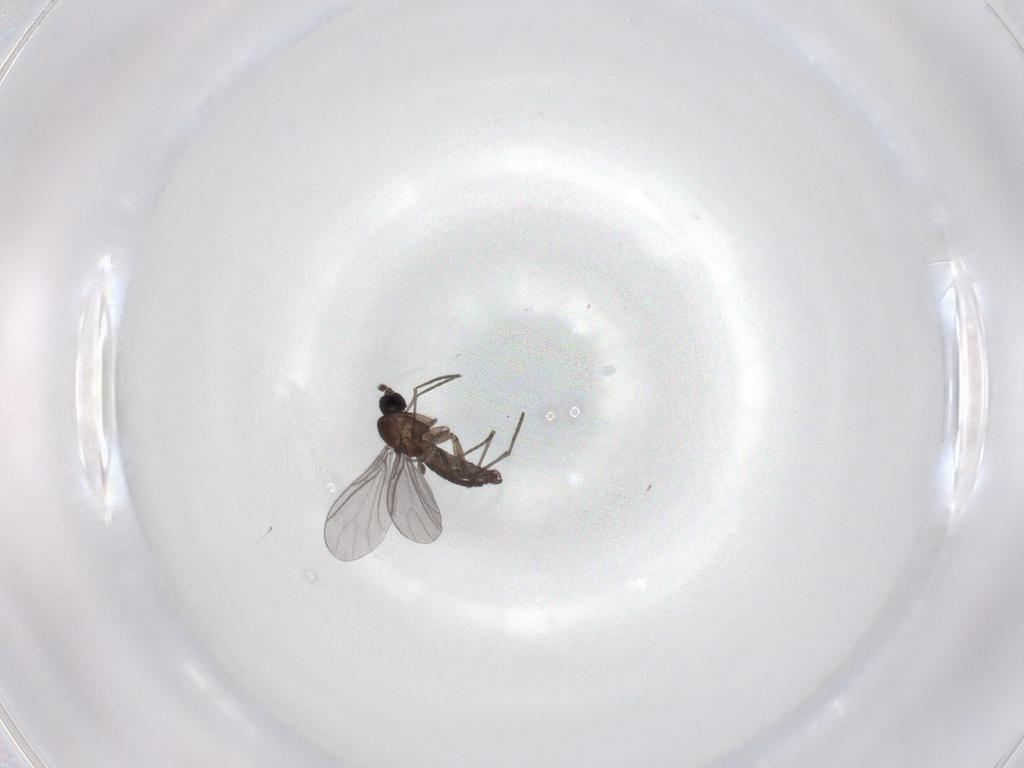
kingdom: Animalia
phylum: Arthropoda
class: Insecta
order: Diptera
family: Sciaridae
